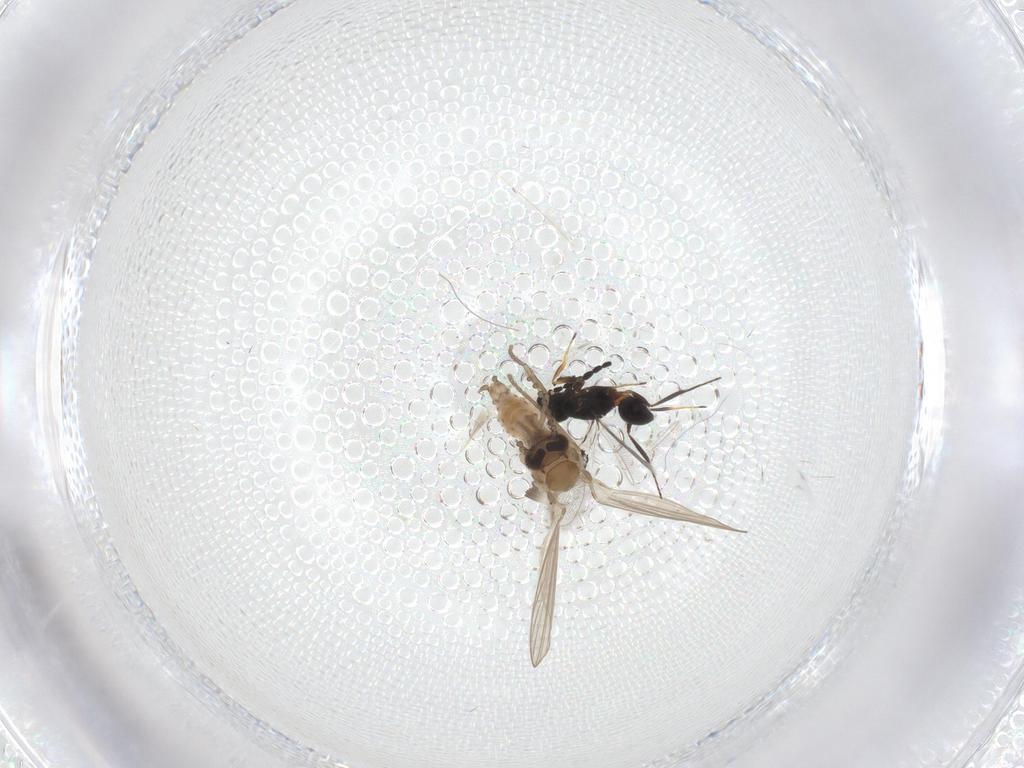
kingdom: Animalia
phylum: Arthropoda
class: Insecta
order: Diptera
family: Psychodidae
